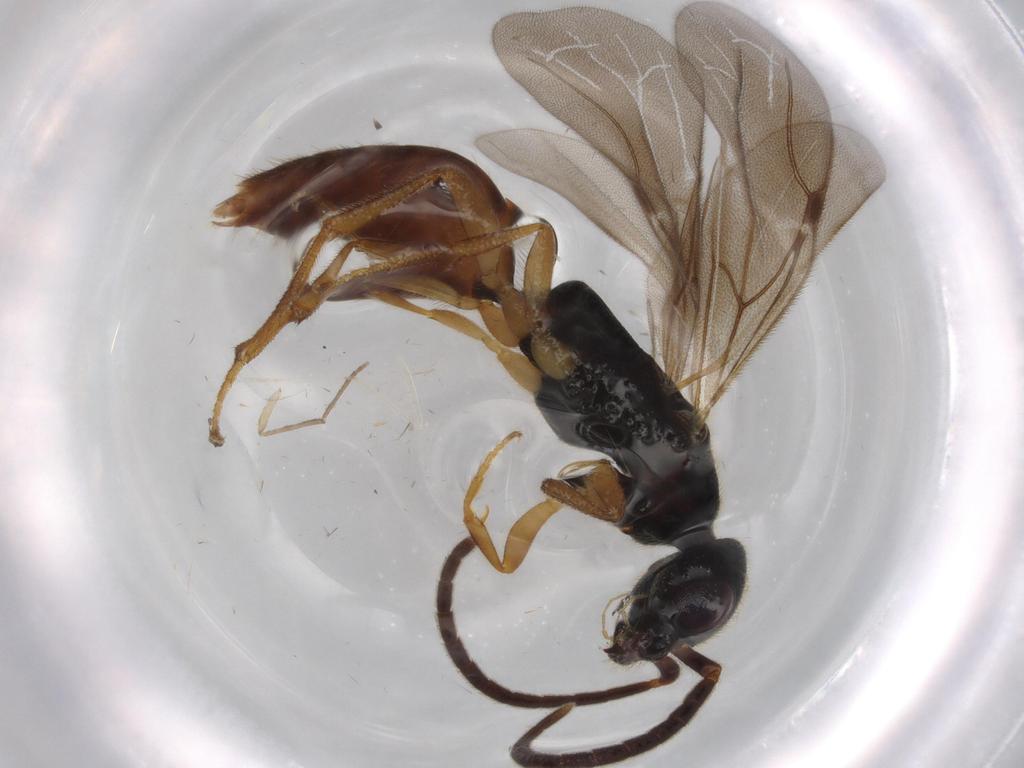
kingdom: Animalia
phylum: Arthropoda
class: Insecta
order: Hymenoptera
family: Bethylidae
